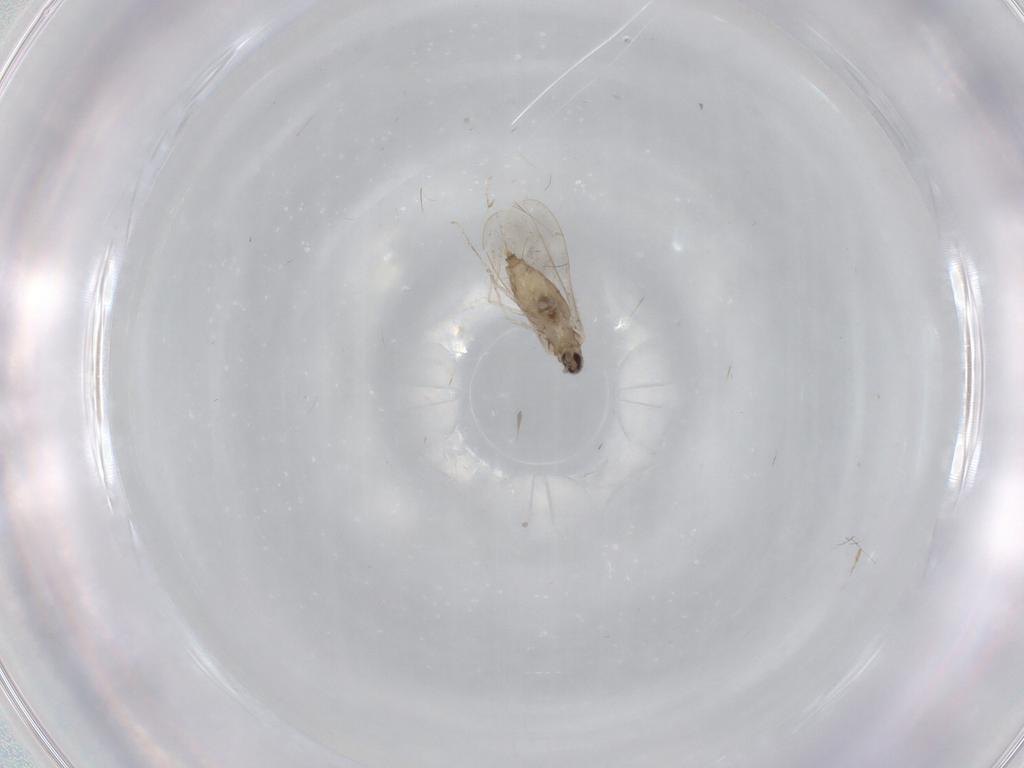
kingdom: Animalia
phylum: Arthropoda
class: Insecta
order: Diptera
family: Cecidomyiidae
